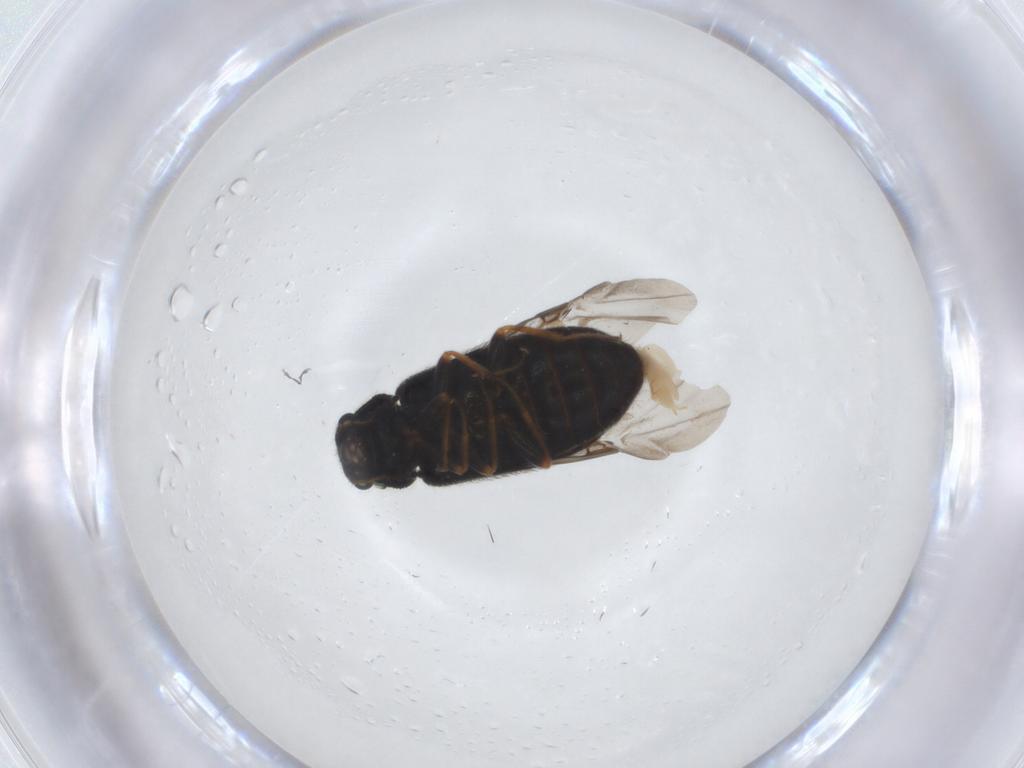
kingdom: Animalia
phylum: Arthropoda
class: Insecta
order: Coleoptera
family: Melyridae
